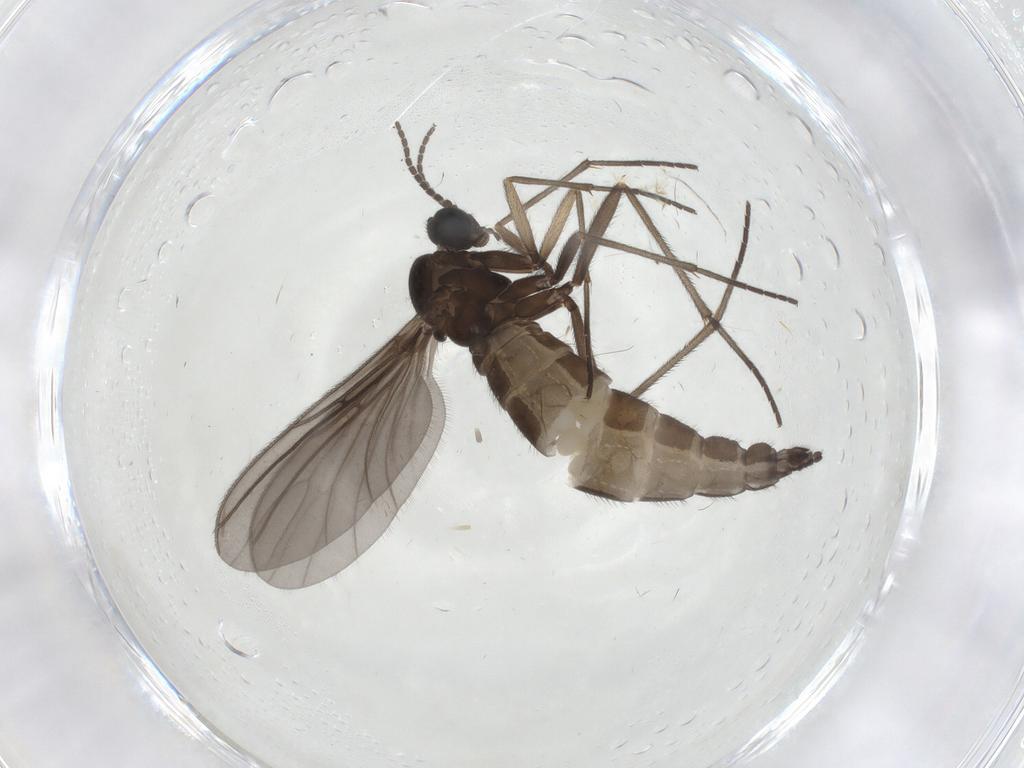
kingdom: Animalia
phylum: Arthropoda
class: Insecta
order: Diptera
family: Sciaridae
